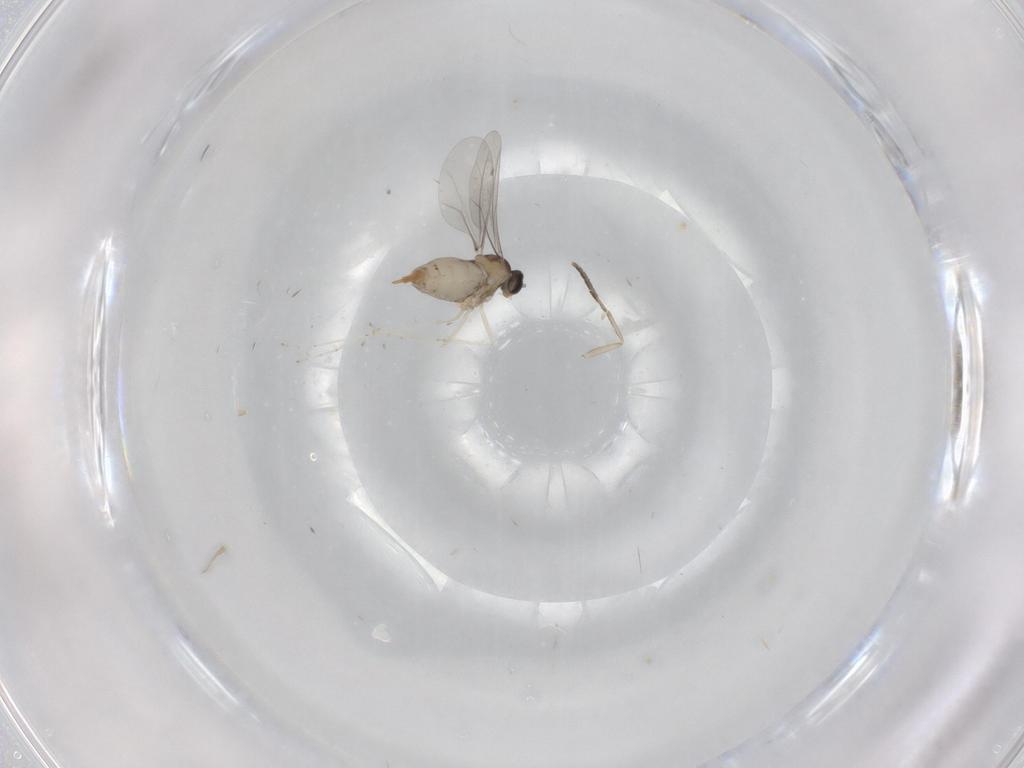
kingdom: Animalia
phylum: Arthropoda
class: Insecta
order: Diptera
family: Cecidomyiidae
